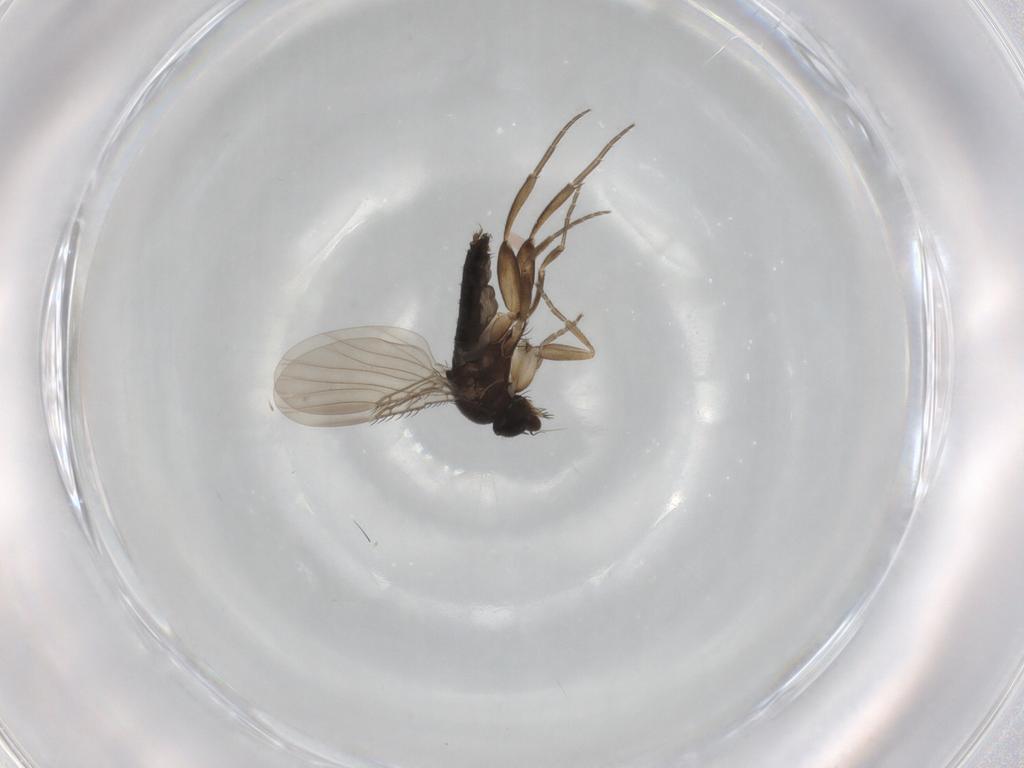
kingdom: Animalia
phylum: Arthropoda
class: Insecta
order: Diptera
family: Phoridae
